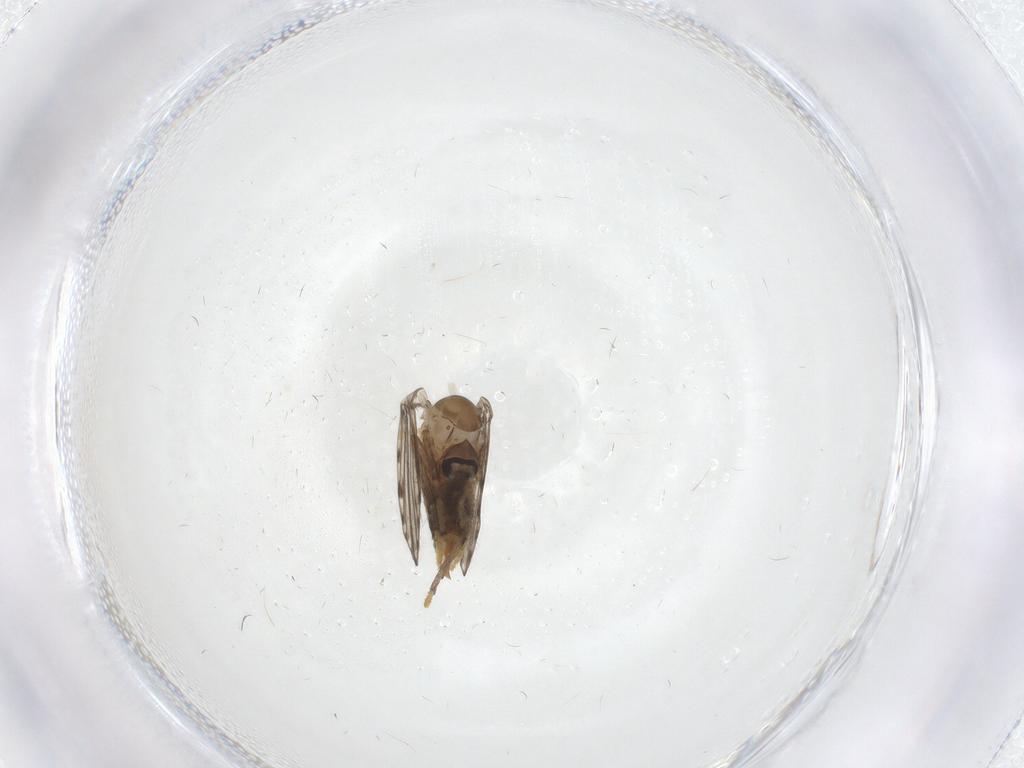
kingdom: Animalia
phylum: Arthropoda
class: Insecta
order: Diptera
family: Psychodidae
